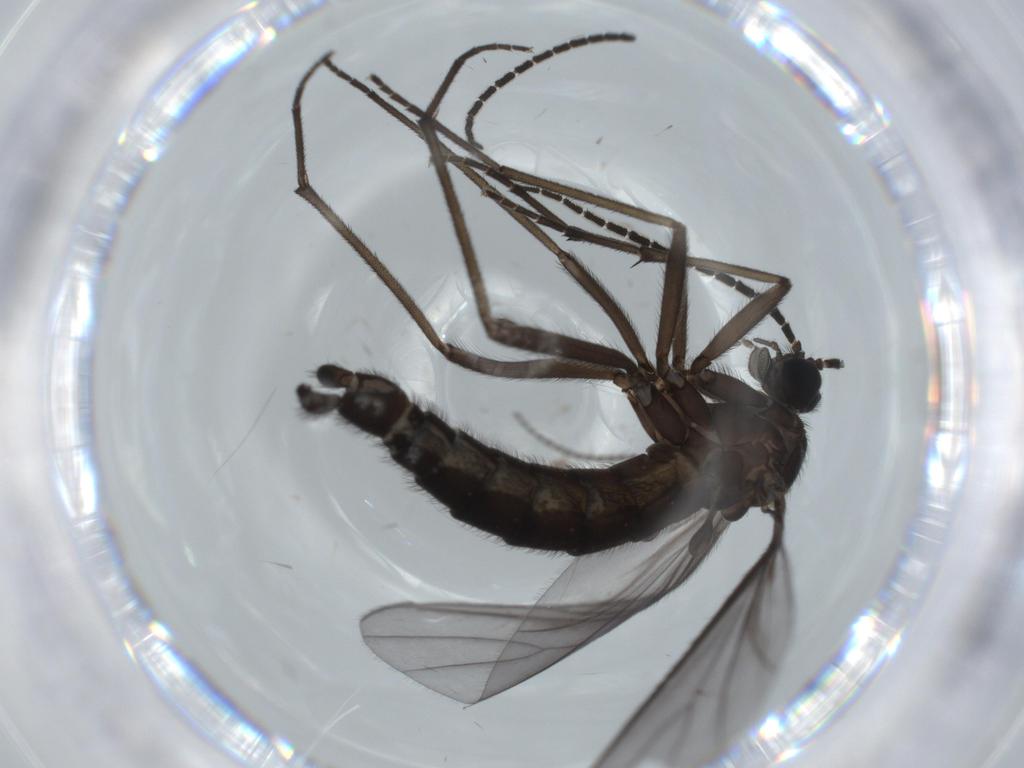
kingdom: Animalia
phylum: Arthropoda
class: Insecta
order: Diptera
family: Sciaridae
